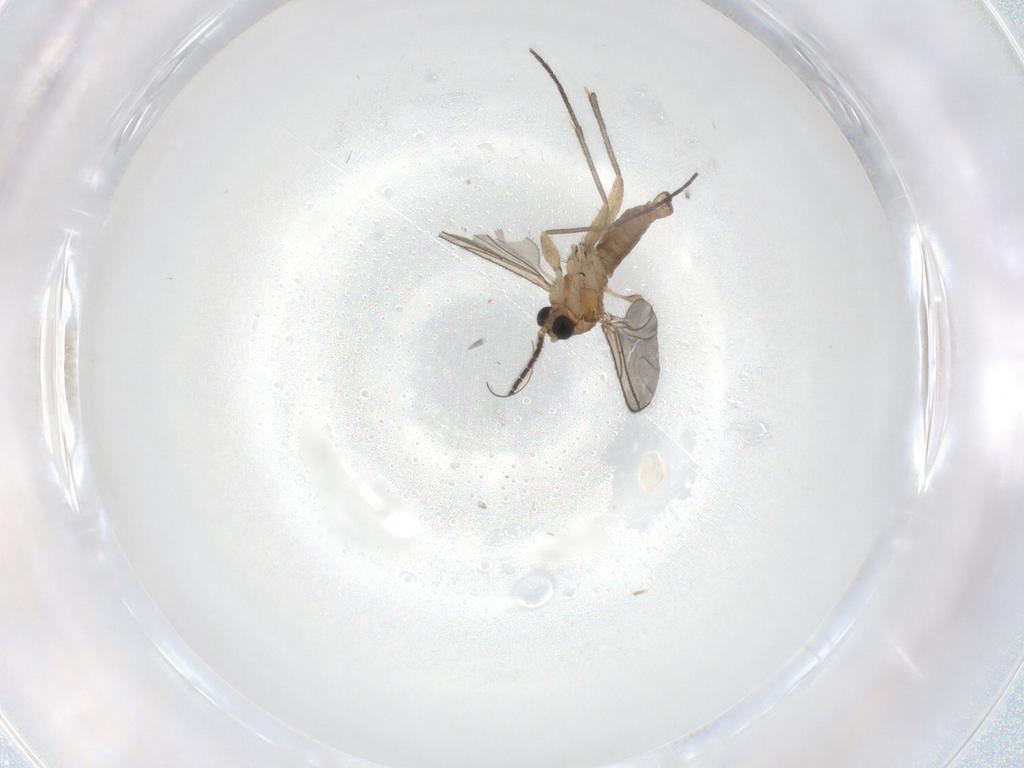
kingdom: Animalia
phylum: Arthropoda
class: Insecta
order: Diptera
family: Sciaridae
